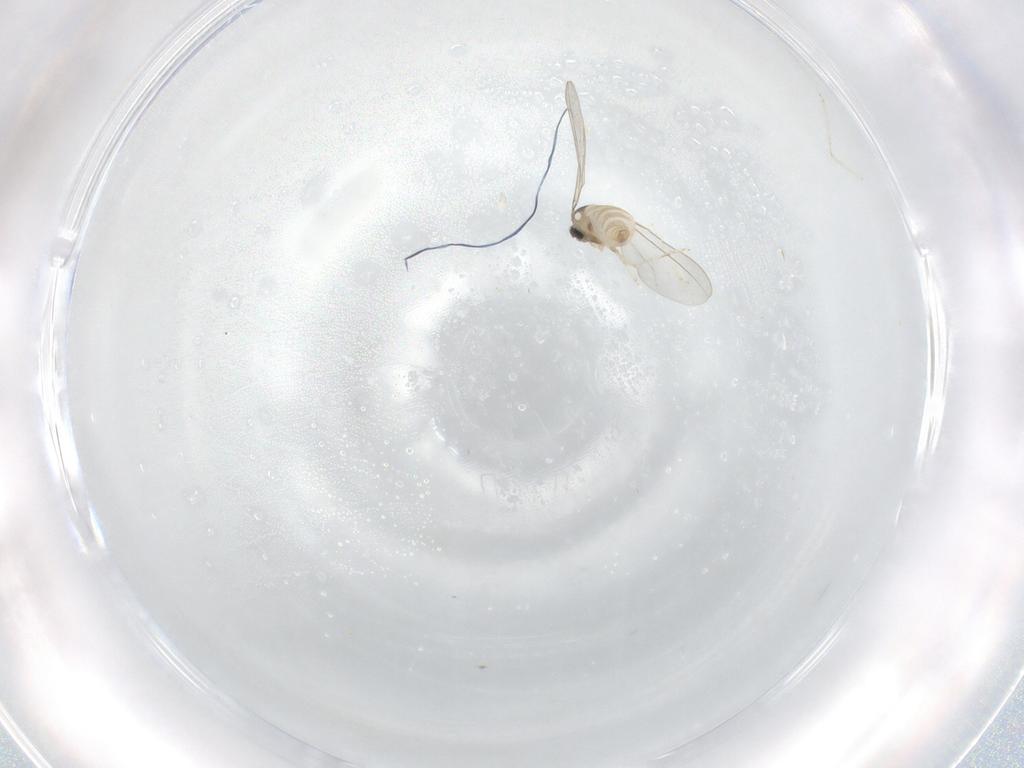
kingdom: Animalia
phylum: Arthropoda
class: Insecta
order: Diptera
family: Cecidomyiidae
